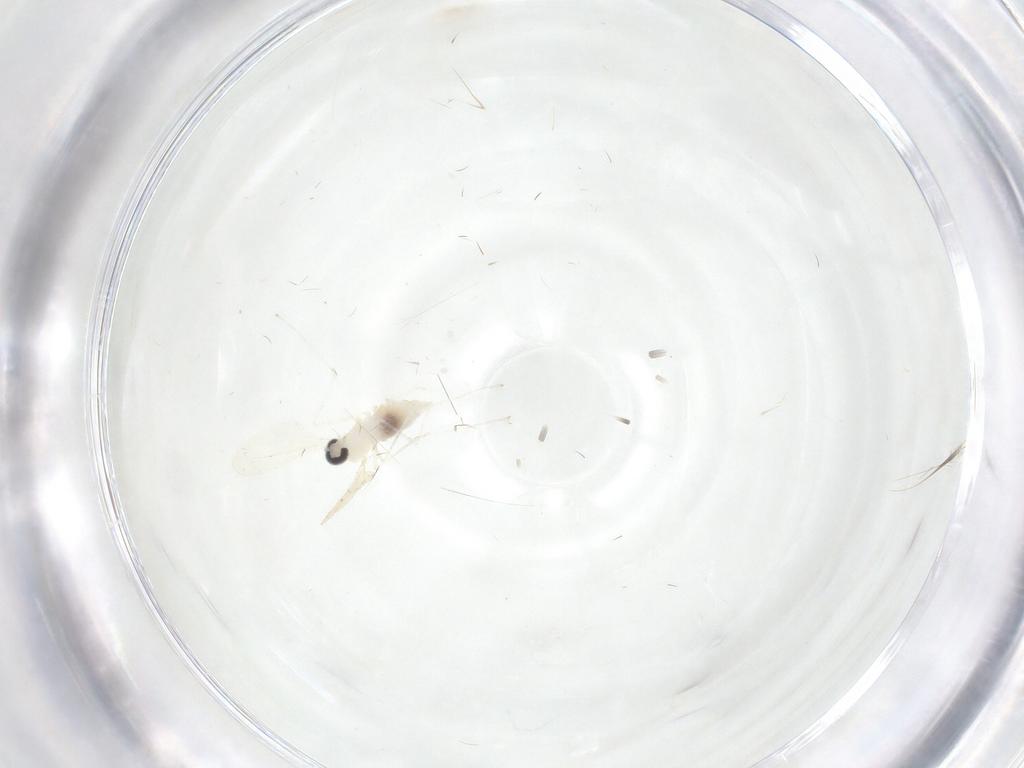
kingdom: Animalia
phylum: Arthropoda
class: Insecta
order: Diptera
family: Cecidomyiidae
